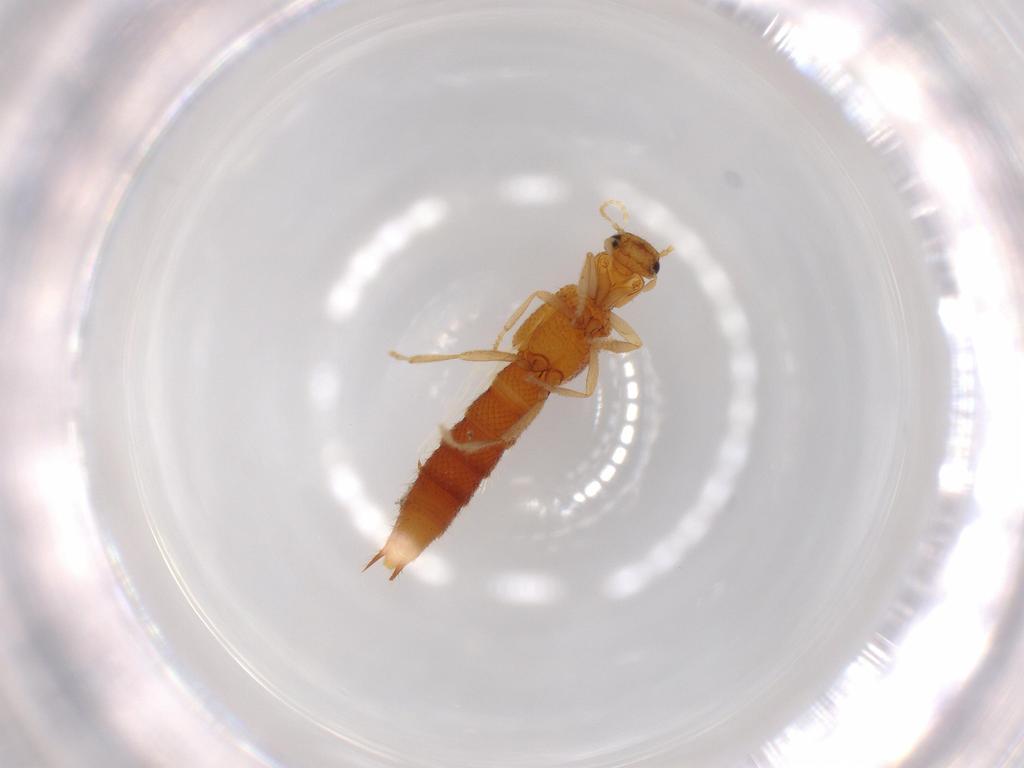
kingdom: Animalia
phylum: Arthropoda
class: Insecta
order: Coleoptera
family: Staphylinidae
